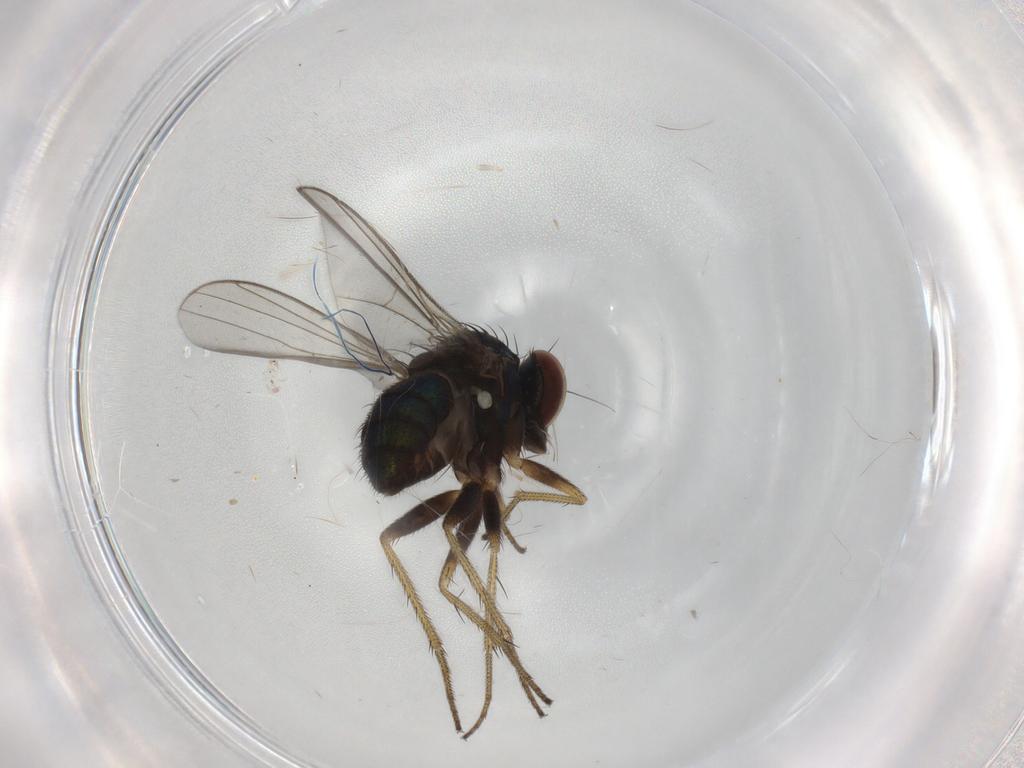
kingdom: Animalia
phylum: Arthropoda
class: Insecta
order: Diptera
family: Dolichopodidae
